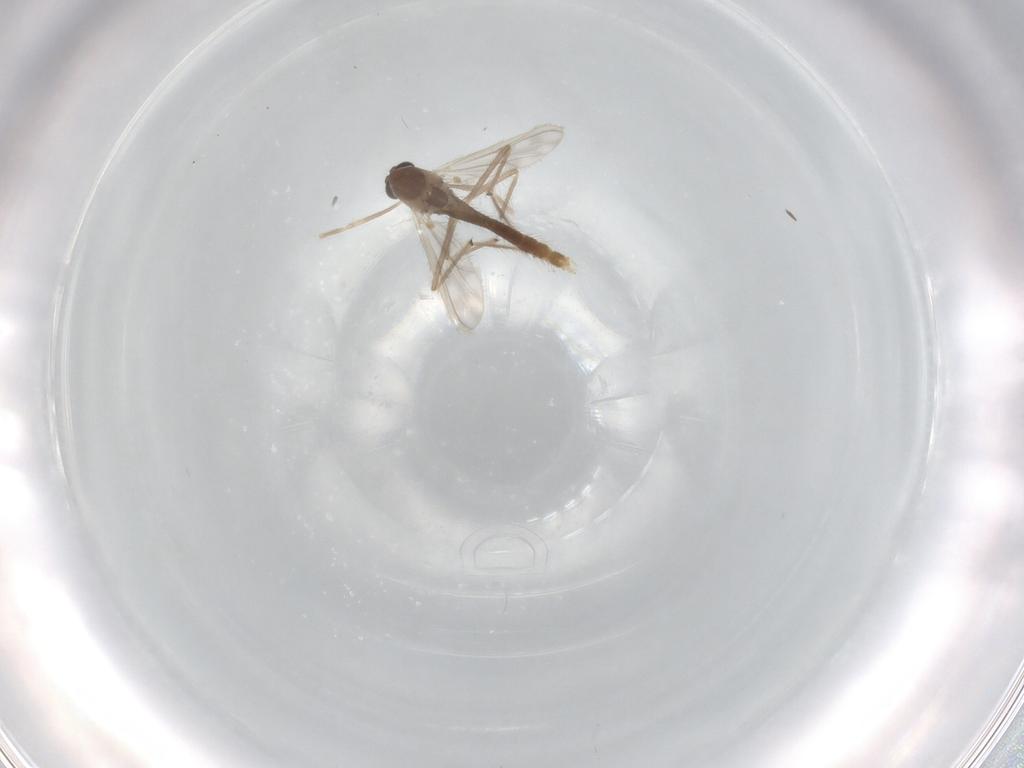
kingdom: Animalia
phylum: Arthropoda
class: Insecta
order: Diptera
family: Chironomidae
